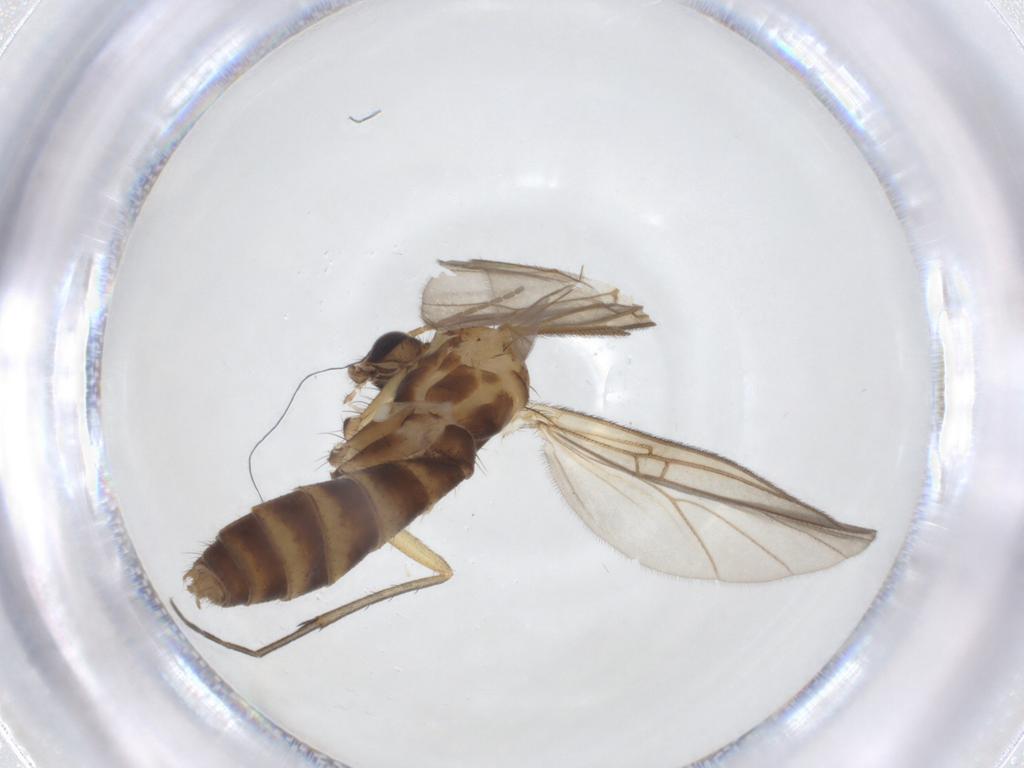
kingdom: Animalia
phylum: Arthropoda
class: Insecta
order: Diptera
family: Mycetophilidae
